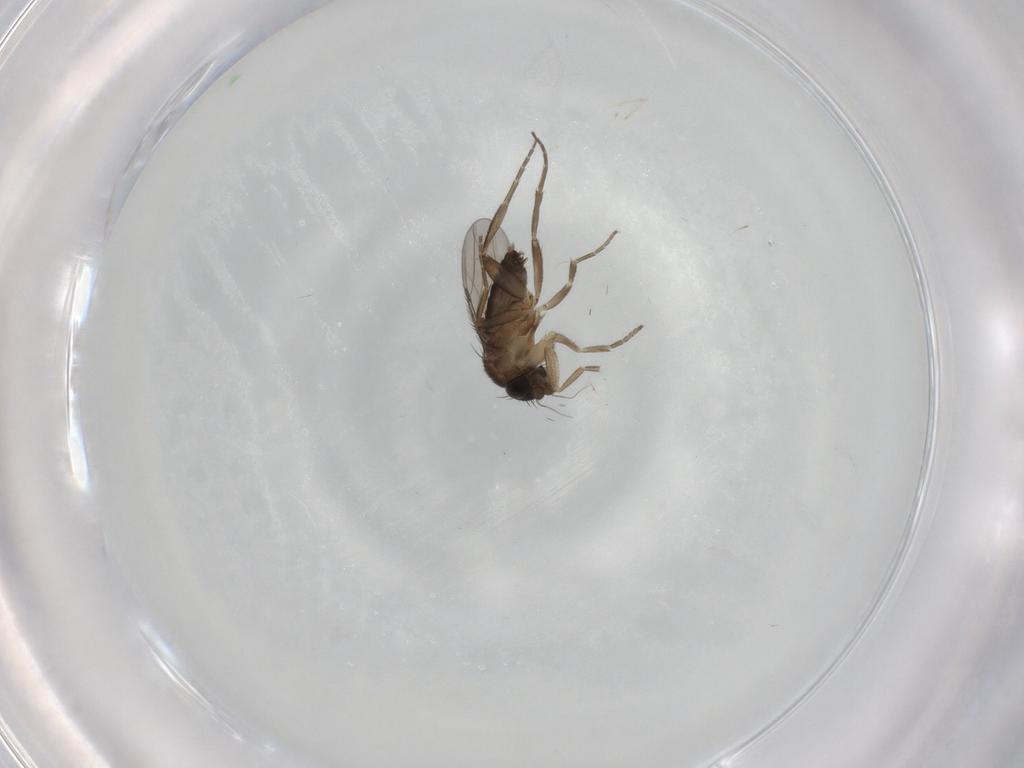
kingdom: Animalia
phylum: Arthropoda
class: Insecta
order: Diptera
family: Phoridae
